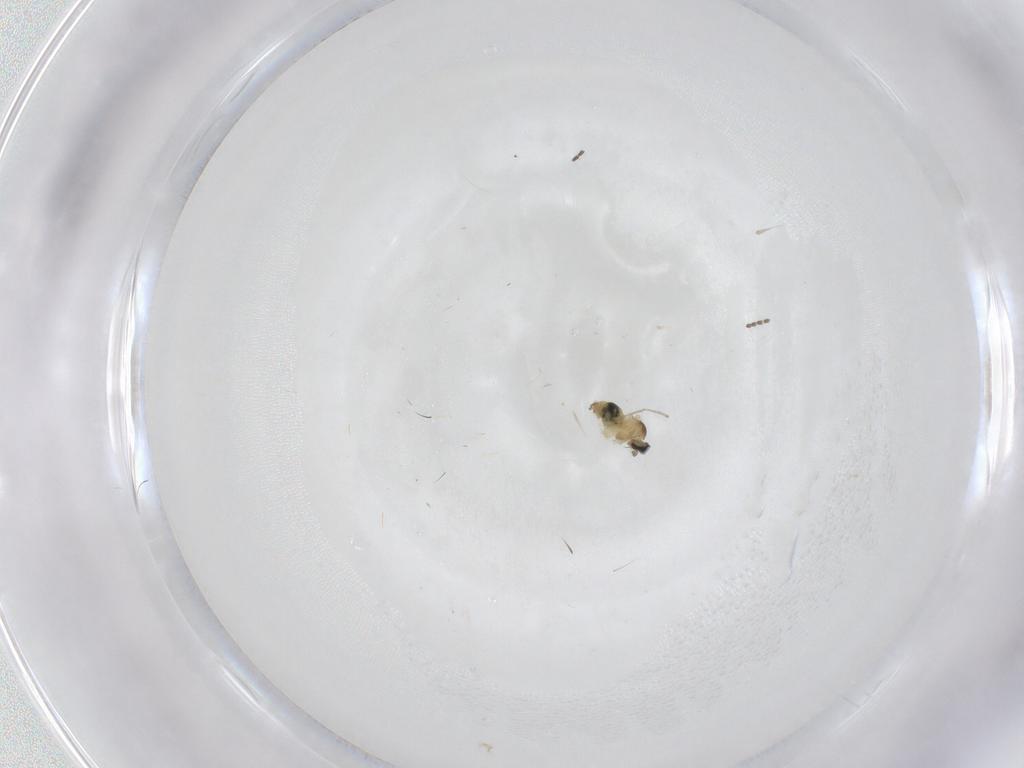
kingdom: Animalia
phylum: Arthropoda
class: Insecta
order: Diptera
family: Cecidomyiidae
